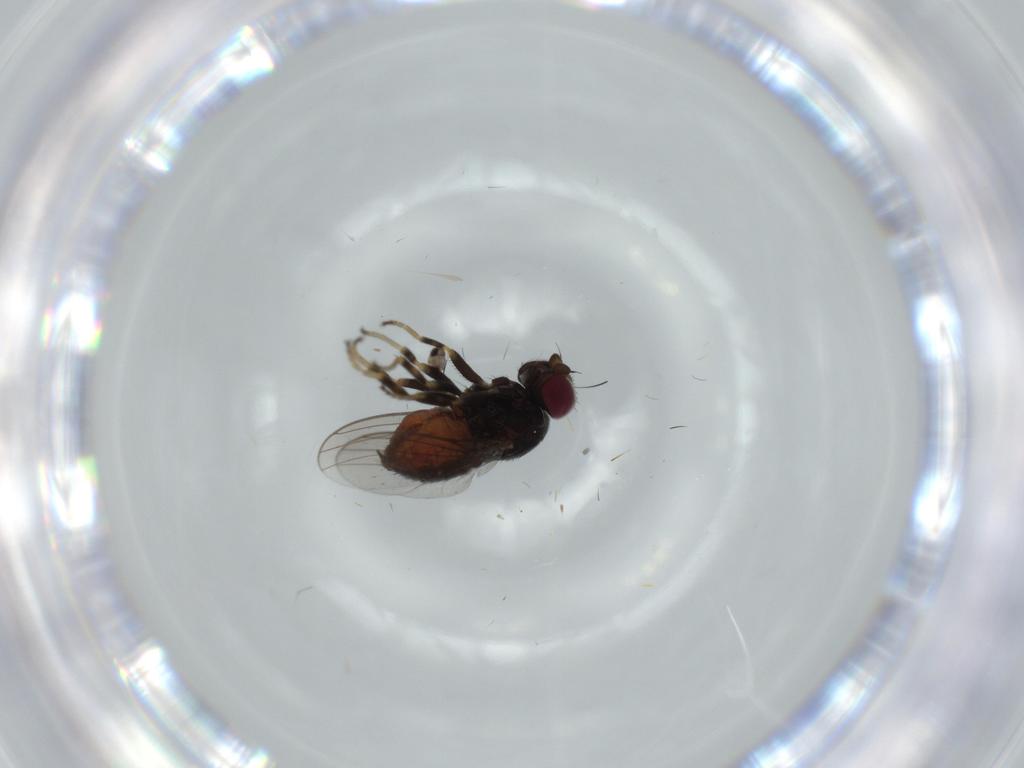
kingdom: Animalia
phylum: Arthropoda
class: Insecta
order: Diptera
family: Chloropidae
